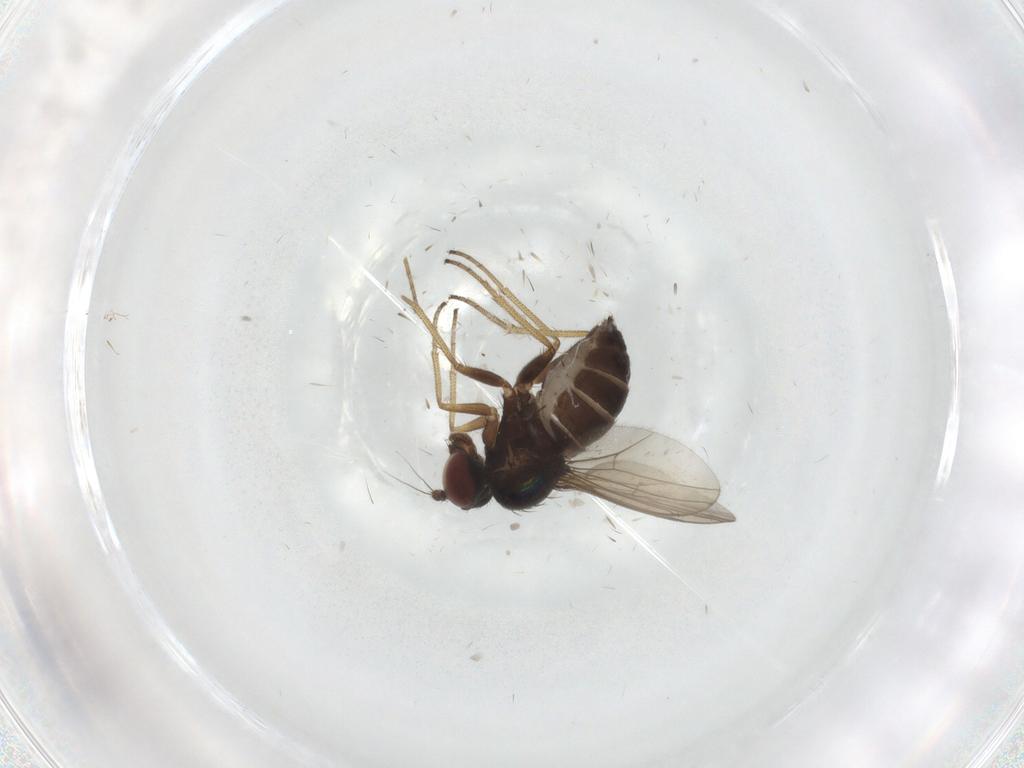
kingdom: Animalia
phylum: Arthropoda
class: Insecta
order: Diptera
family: Dolichopodidae
